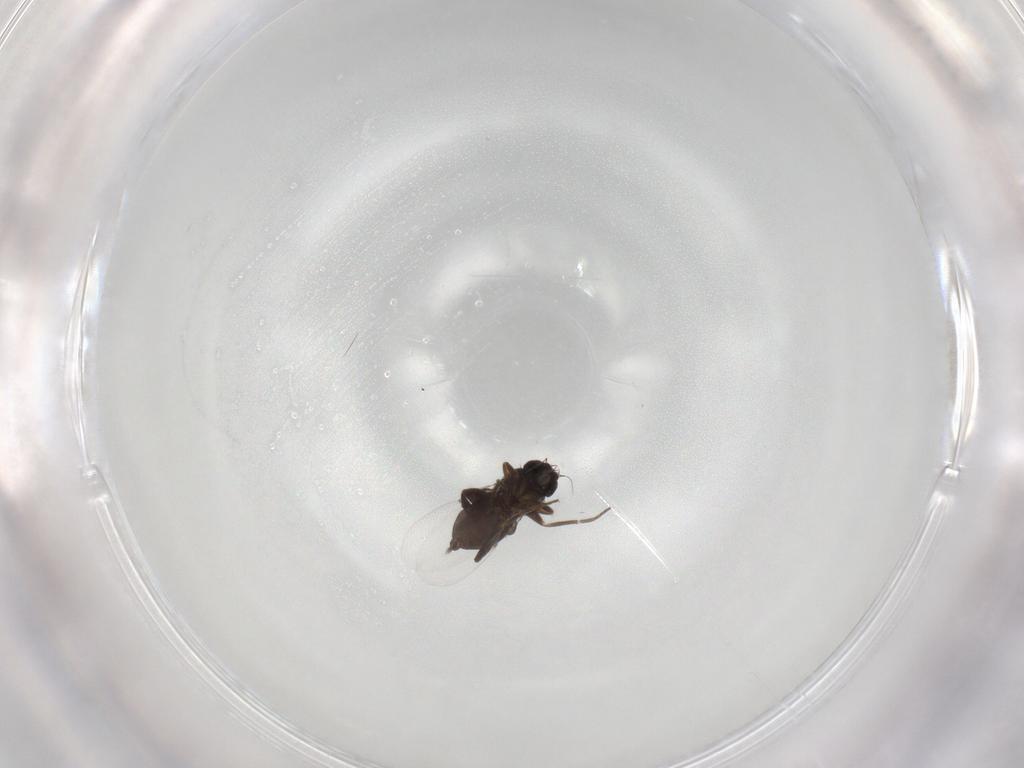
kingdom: Animalia
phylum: Arthropoda
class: Insecta
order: Diptera
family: Phoridae
